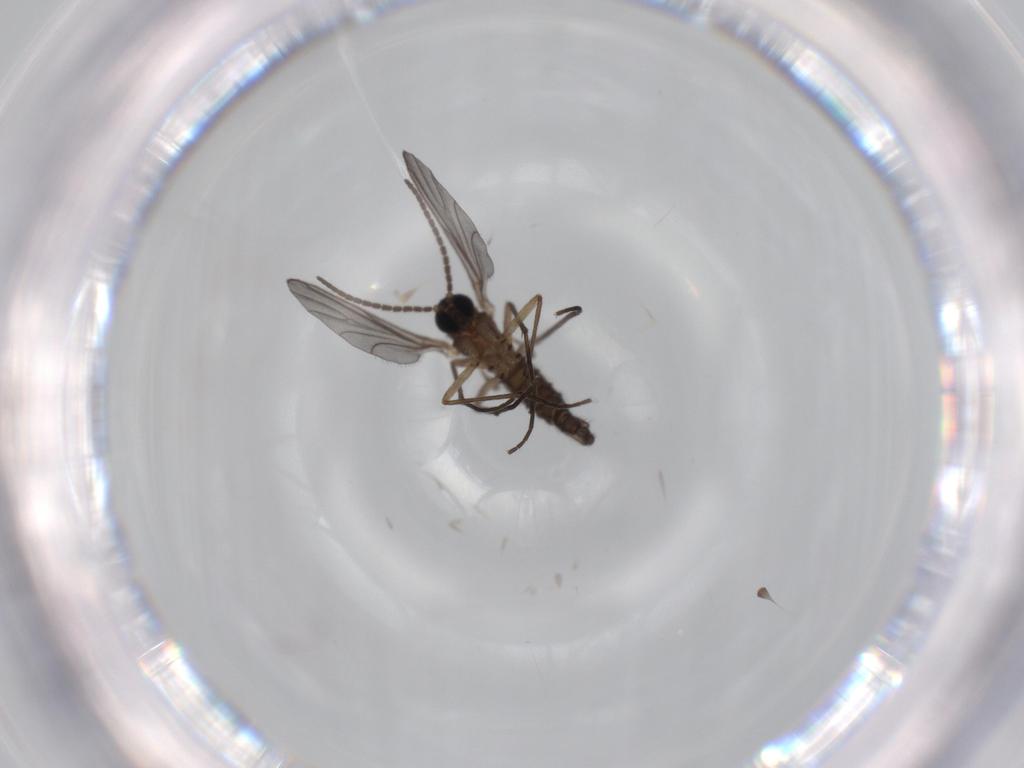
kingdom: Animalia
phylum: Arthropoda
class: Insecta
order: Diptera
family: Sciaridae
